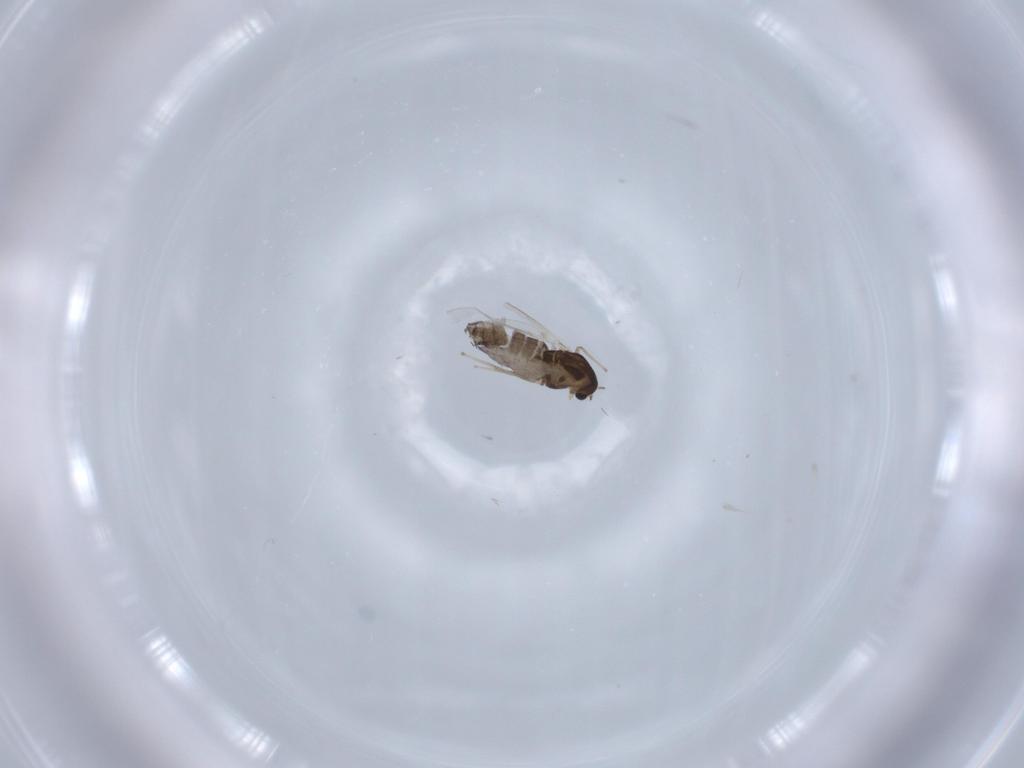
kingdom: Animalia
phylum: Arthropoda
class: Insecta
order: Diptera
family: Chironomidae
